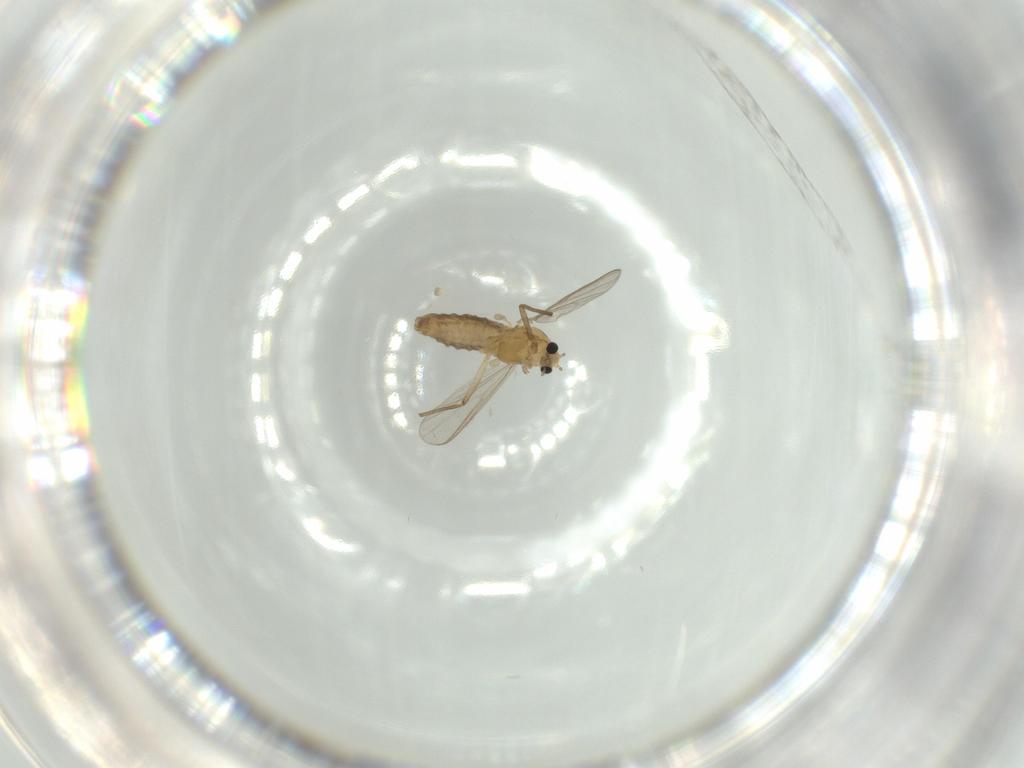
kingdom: Animalia
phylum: Arthropoda
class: Insecta
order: Diptera
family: Chironomidae
